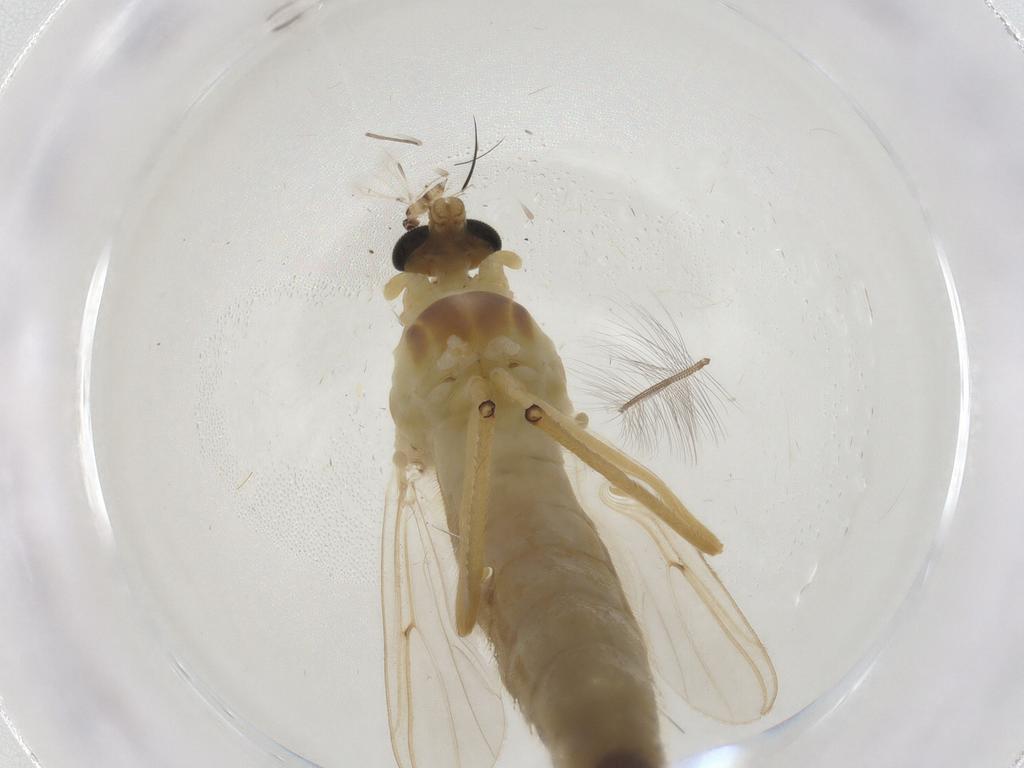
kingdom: Animalia
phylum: Arthropoda
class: Insecta
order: Diptera
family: Chironomidae
